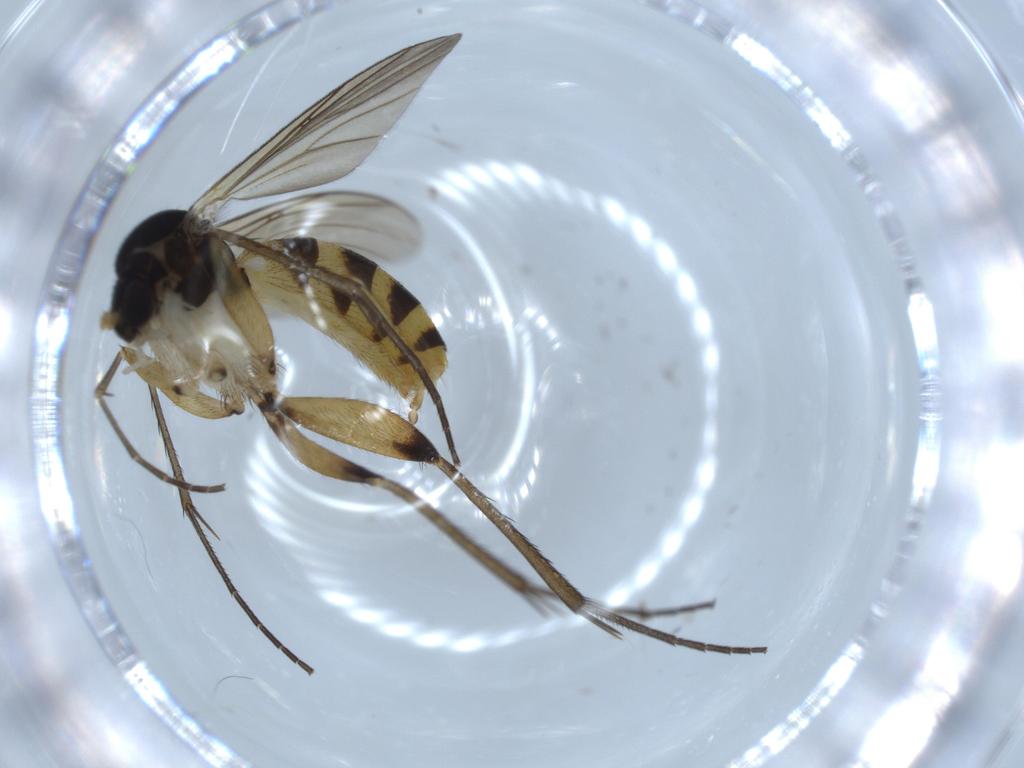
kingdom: Animalia
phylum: Arthropoda
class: Insecta
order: Diptera
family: Mycetophilidae
